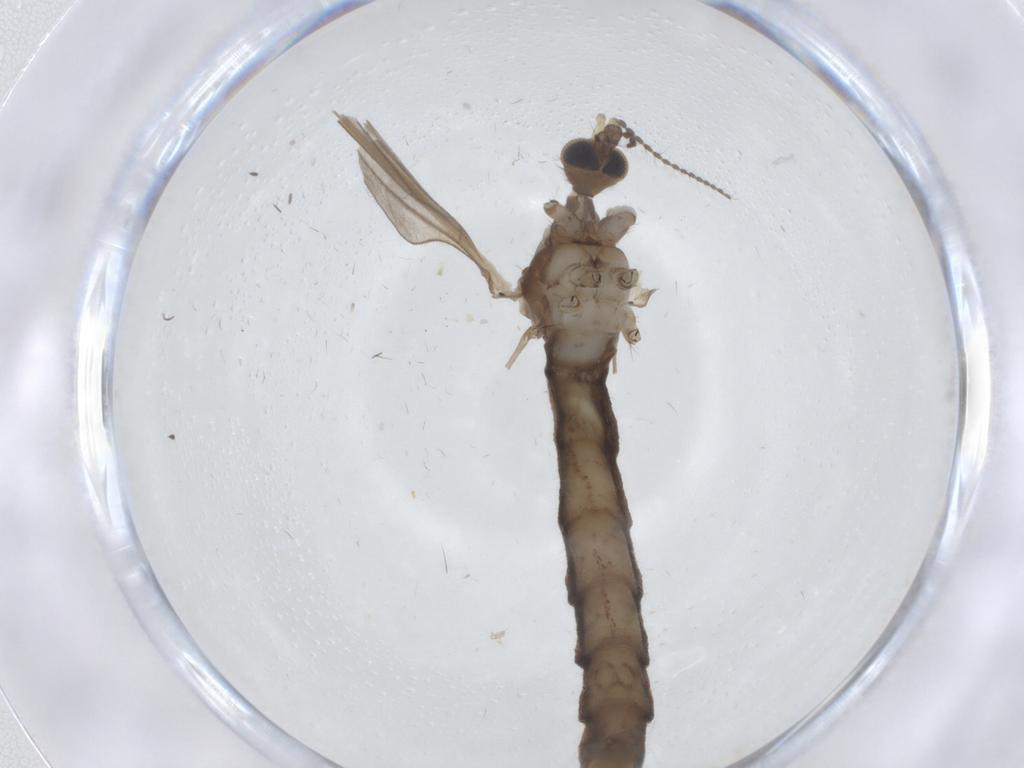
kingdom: Animalia
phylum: Arthropoda
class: Insecta
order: Diptera
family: Limoniidae
